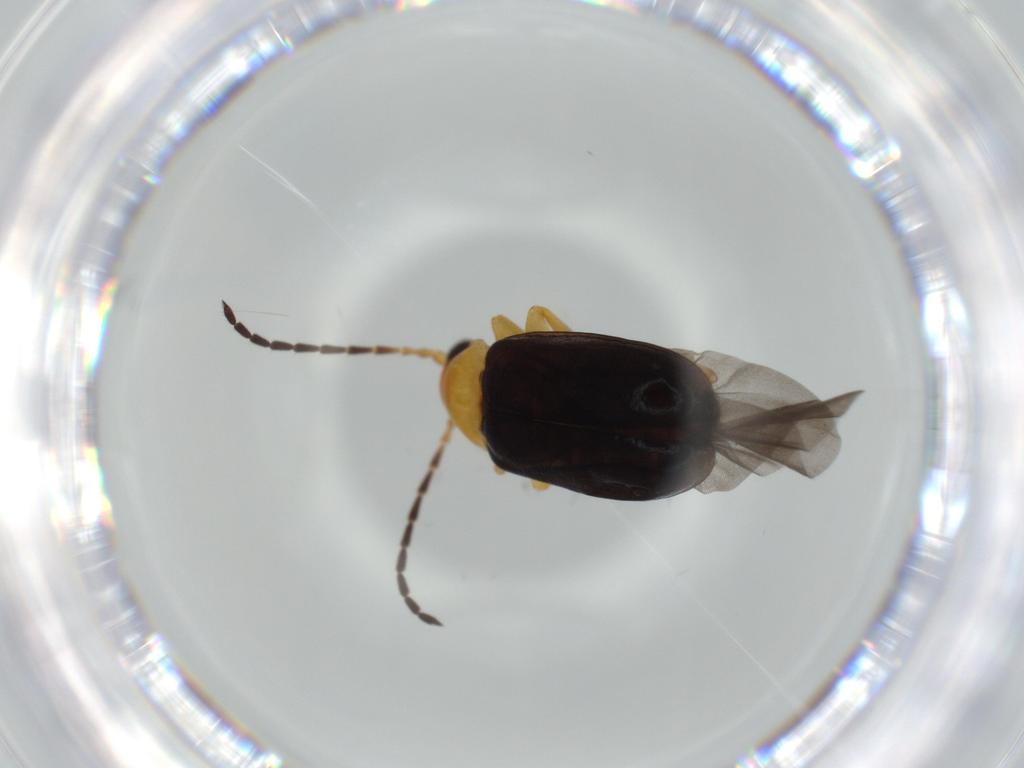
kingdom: Animalia
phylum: Arthropoda
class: Insecta
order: Coleoptera
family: Chrysomelidae
